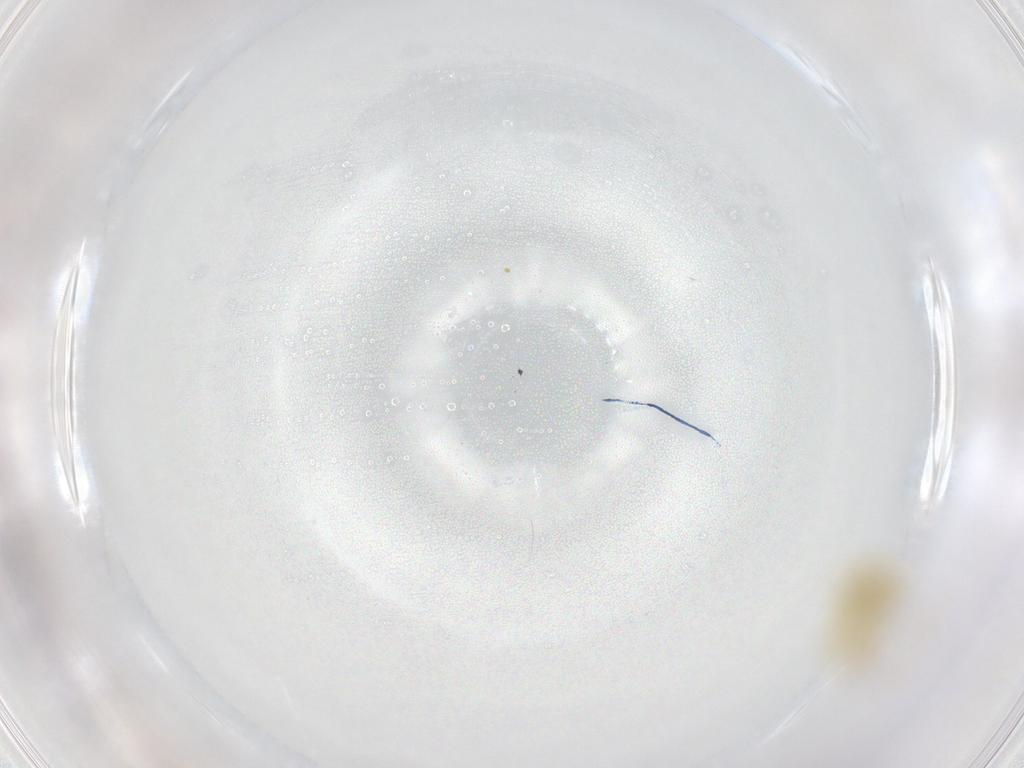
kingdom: Animalia
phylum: Arthropoda
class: Insecta
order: Hemiptera
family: Aleyrodidae
